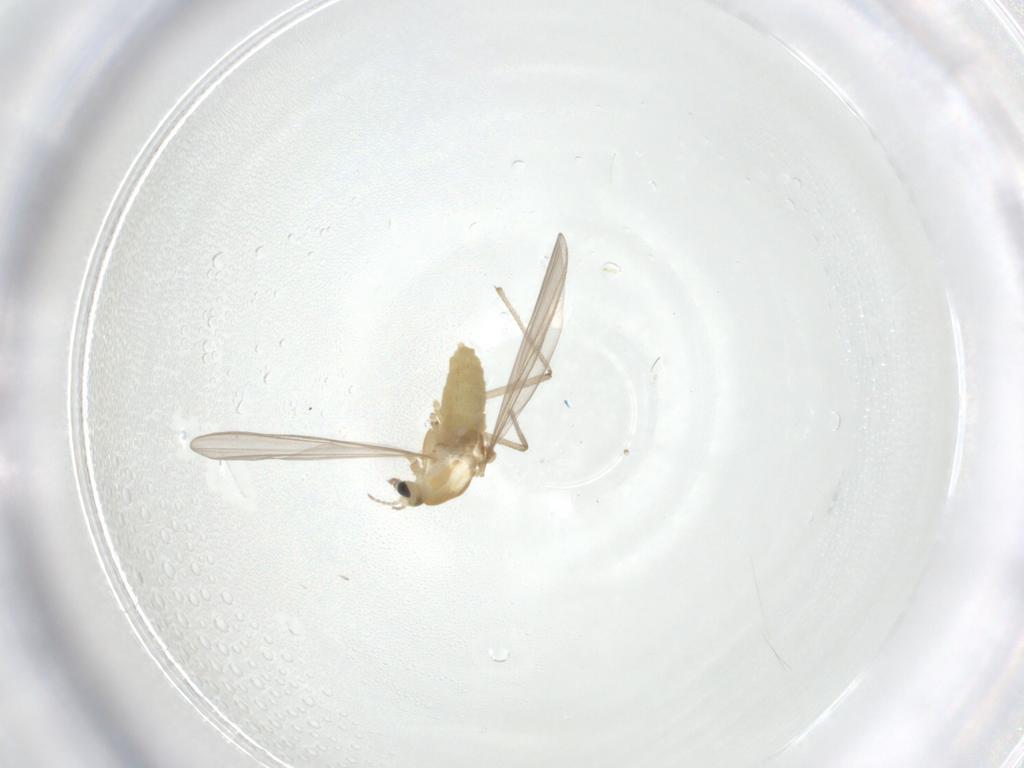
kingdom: Animalia
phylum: Arthropoda
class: Insecta
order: Diptera
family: Chironomidae
